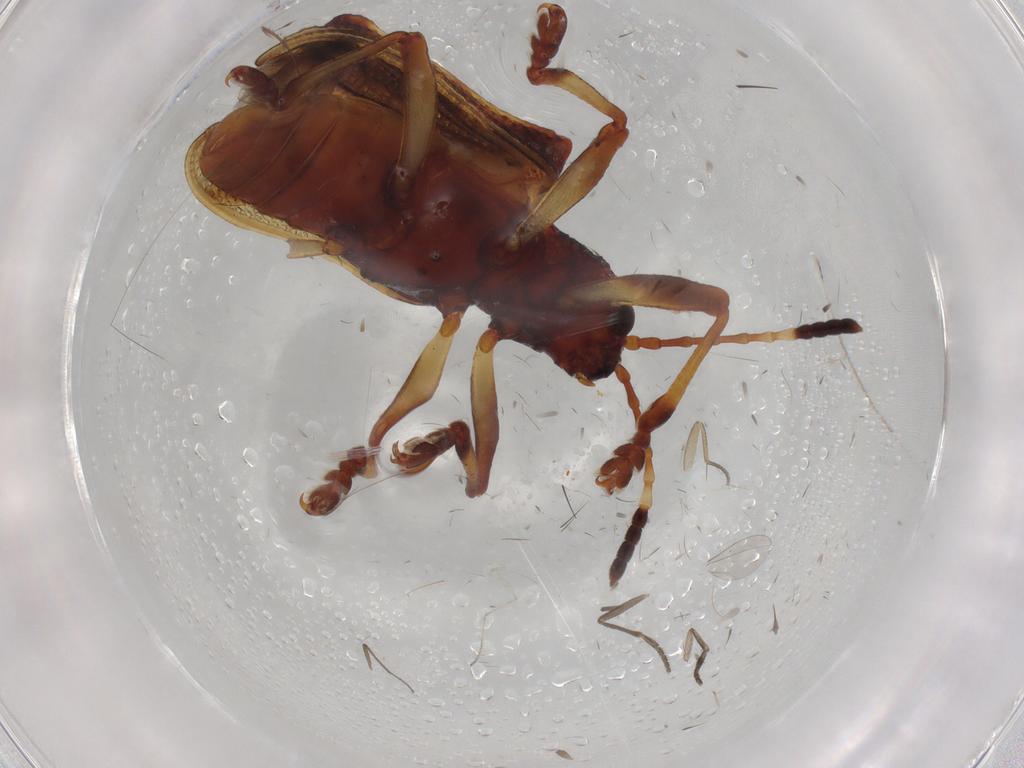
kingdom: Animalia
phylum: Arthropoda
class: Insecta
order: Coleoptera
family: Chrysomelidae
